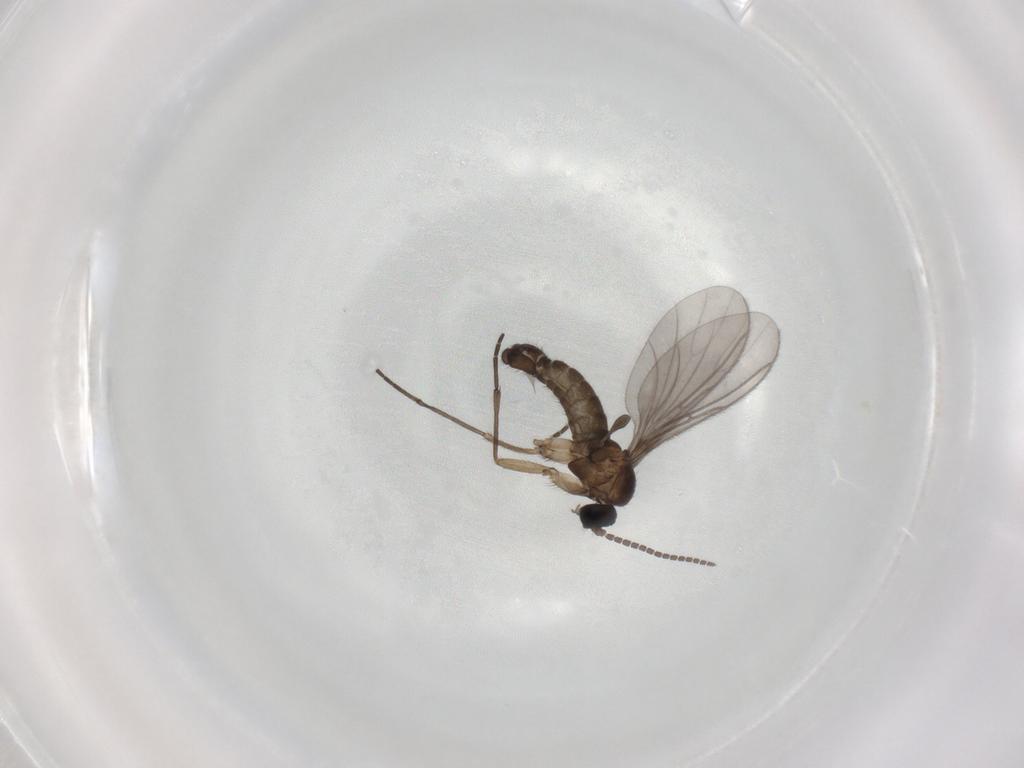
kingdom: Animalia
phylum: Arthropoda
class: Insecta
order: Diptera
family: Sciaridae
